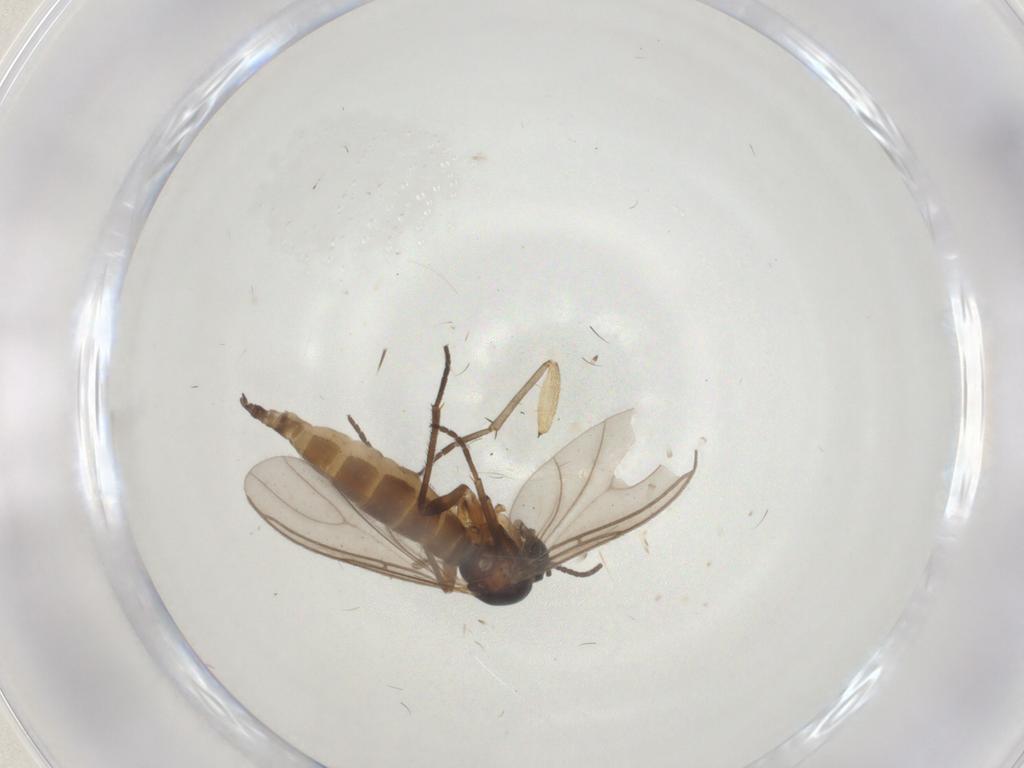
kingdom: Animalia
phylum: Arthropoda
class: Insecta
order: Diptera
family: Sciaridae
